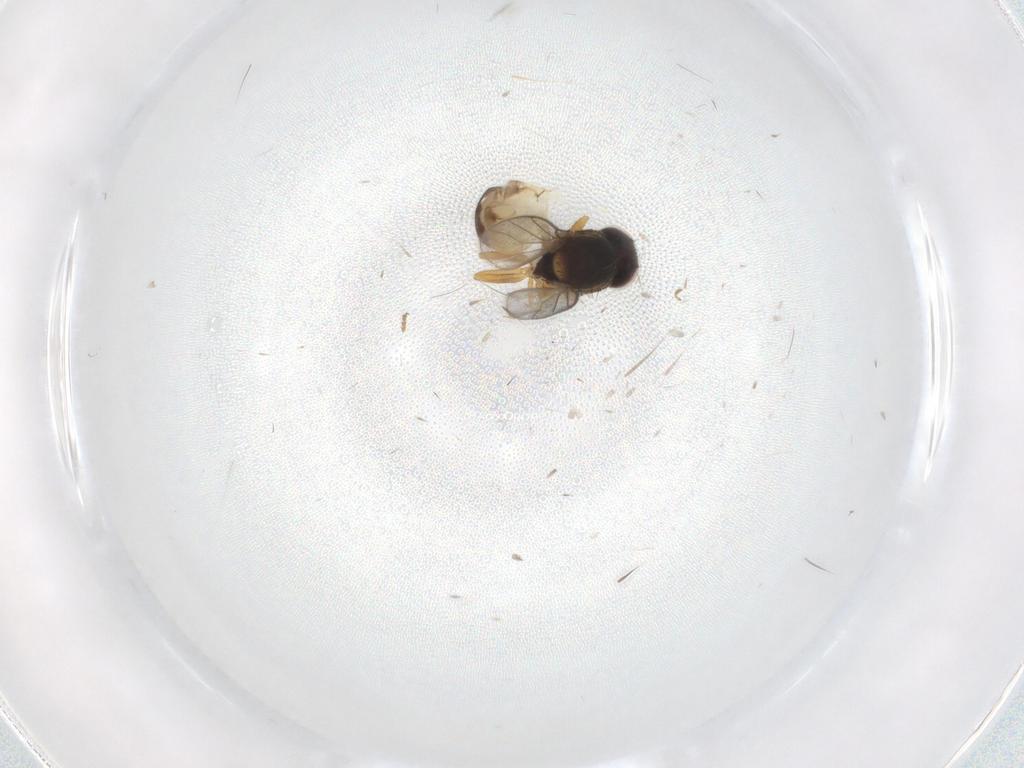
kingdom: Animalia
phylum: Arthropoda
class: Insecta
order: Diptera
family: Chloropidae
